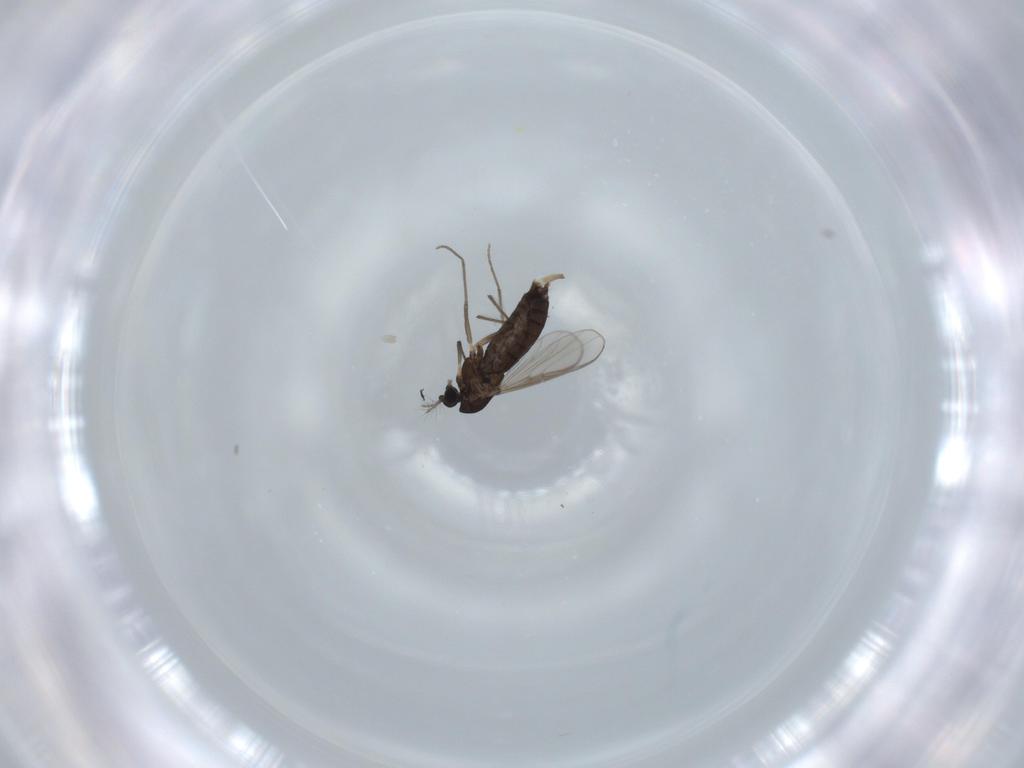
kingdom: Animalia
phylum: Arthropoda
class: Insecta
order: Diptera
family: Chironomidae
